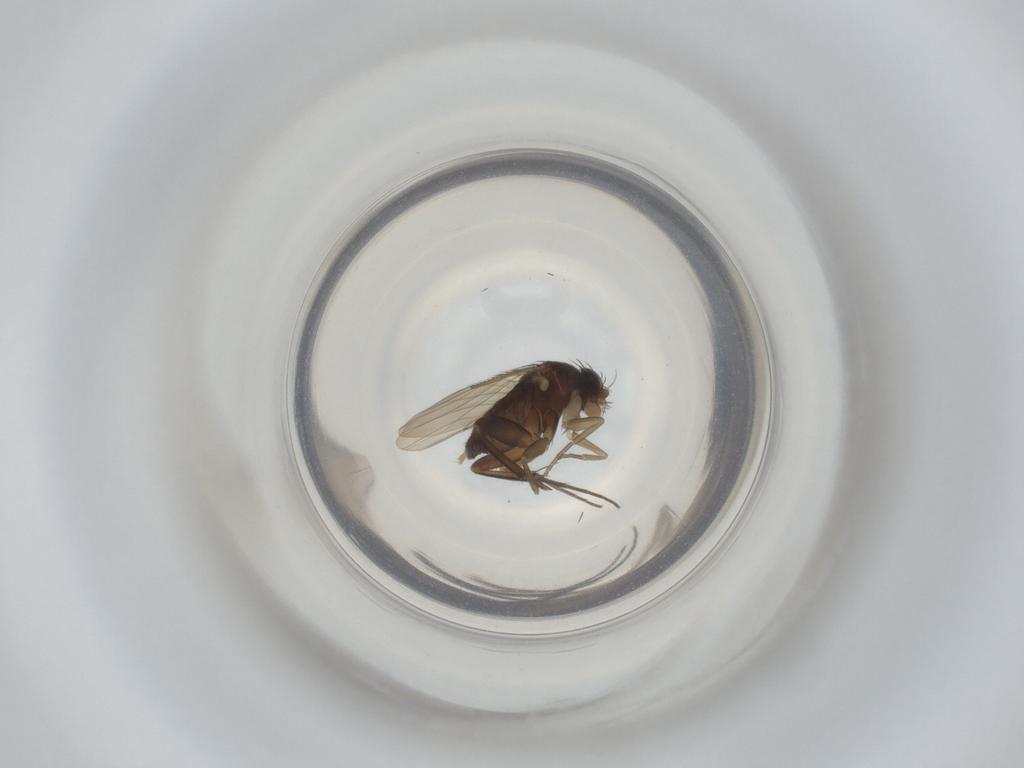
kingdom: Animalia
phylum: Arthropoda
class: Insecta
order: Diptera
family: Phoridae
